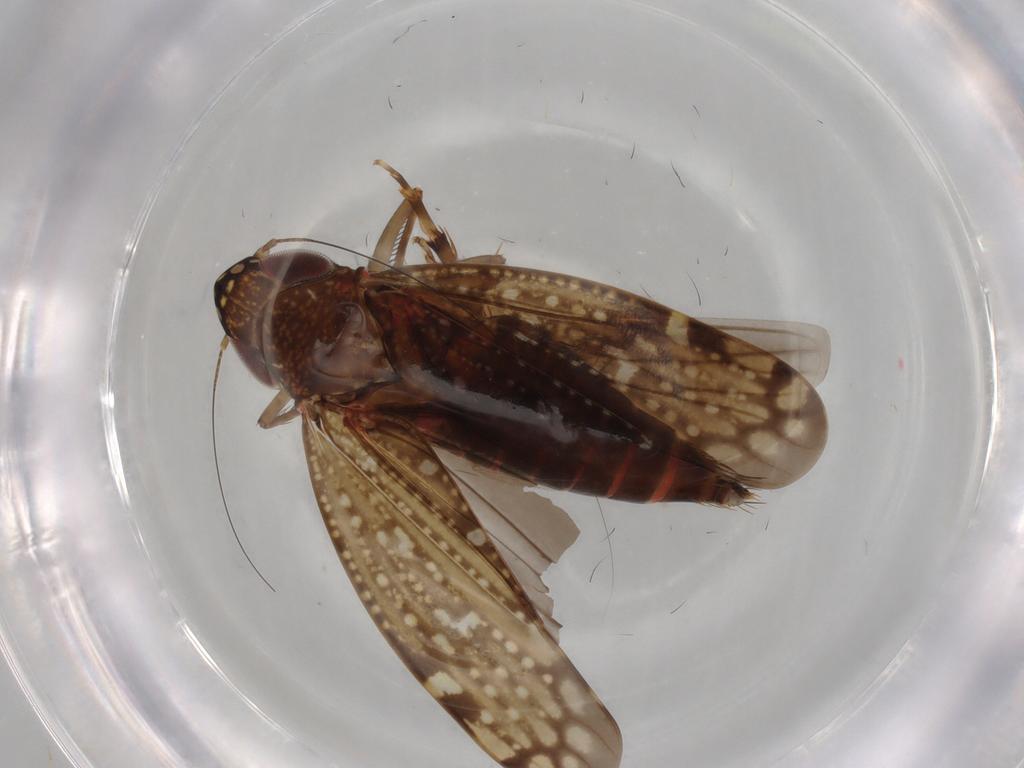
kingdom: Animalia
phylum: Arthropoda
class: Insecta
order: Hemiptera
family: Cicadellidae
